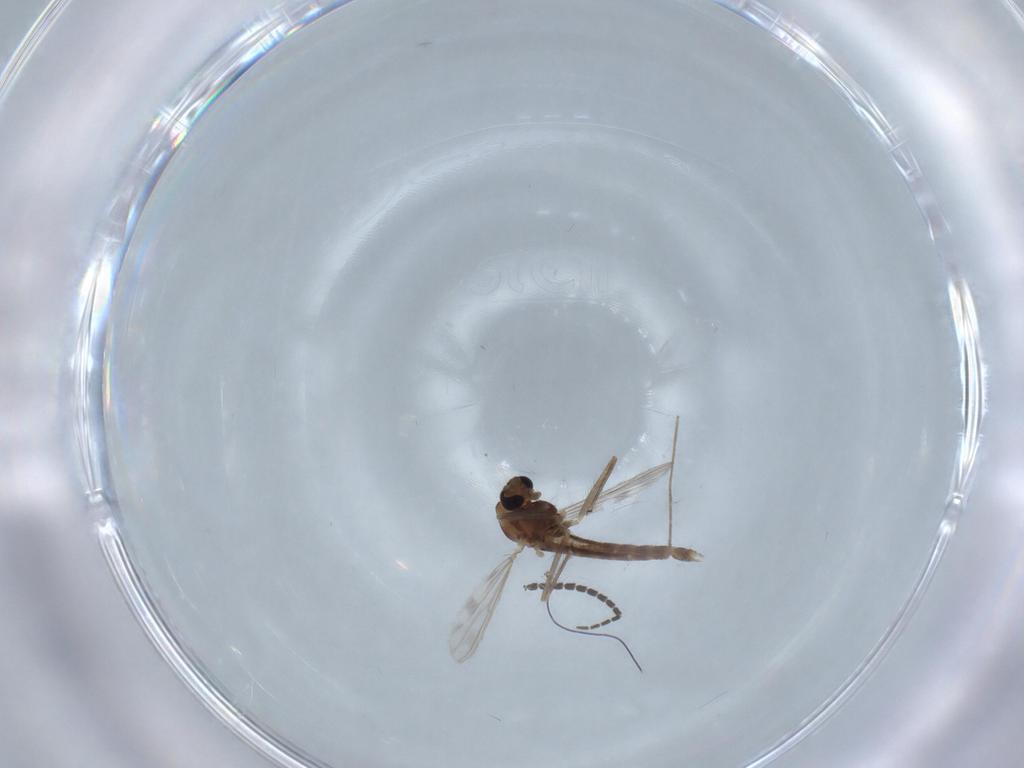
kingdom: Animalia
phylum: Arthropoda
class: Insecta
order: Diptera
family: Chironomidae
